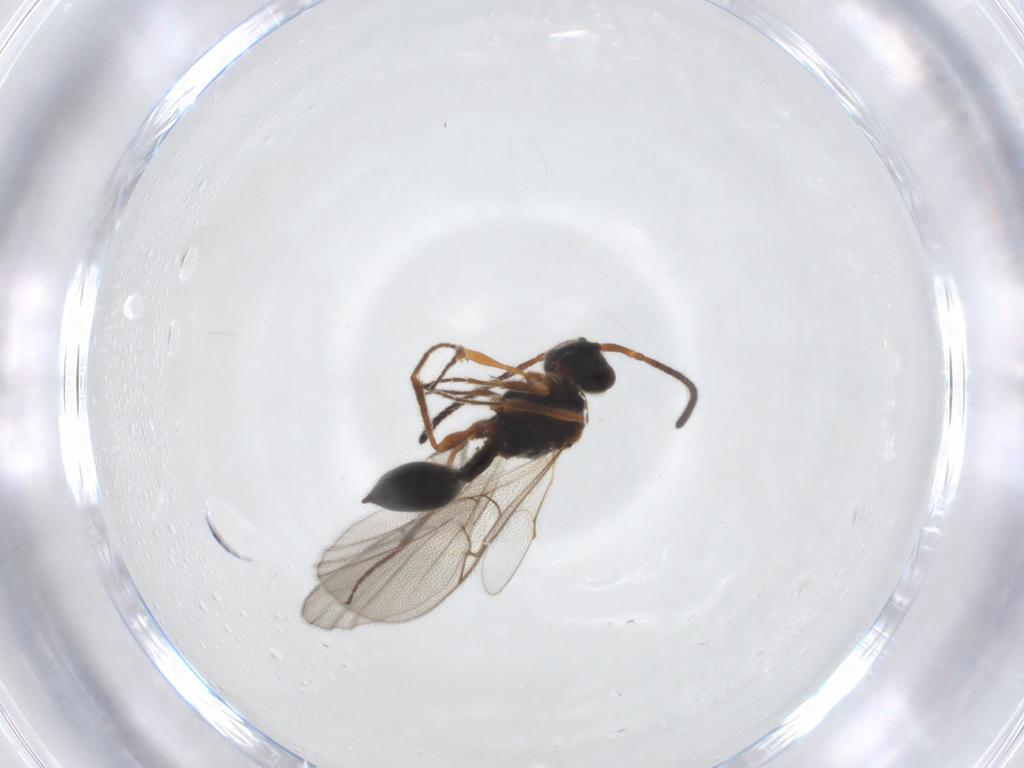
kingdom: Animalia
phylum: Arthropoda
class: Insecta
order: Hymenoptera
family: Diapriidae
